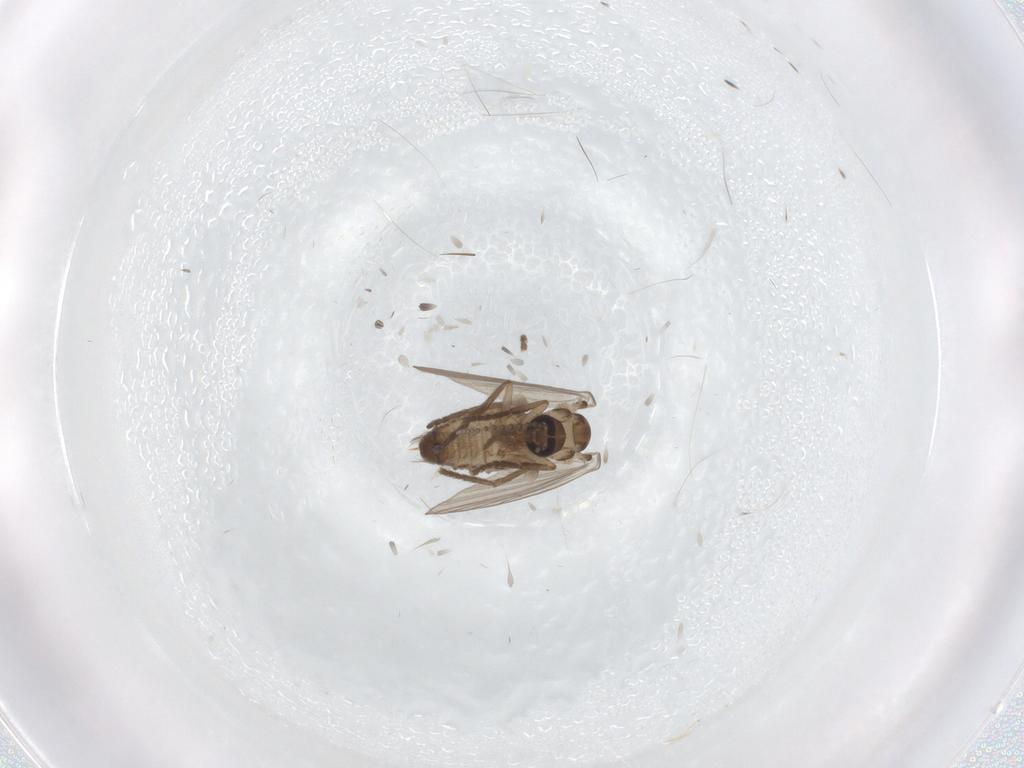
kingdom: Animalia
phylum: Arthropoda
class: Insecta
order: Diptera
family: Psychodidae
